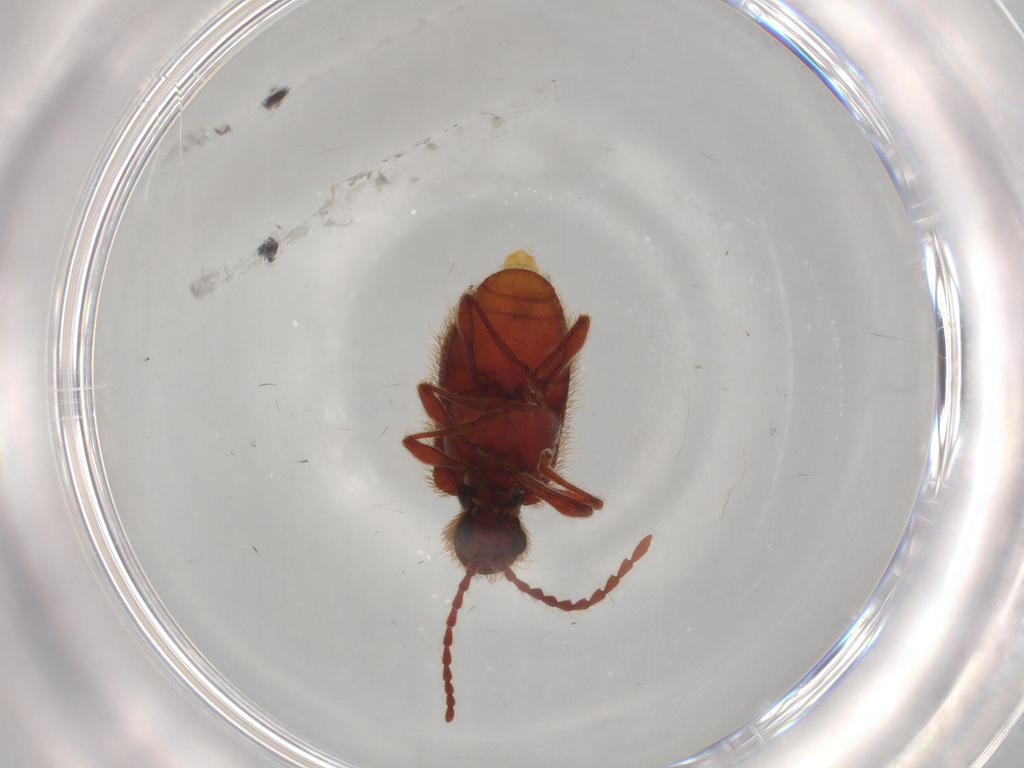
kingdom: Animalia
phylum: Arthropoda
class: Insecta
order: Coleoptera
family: Ptinidae
